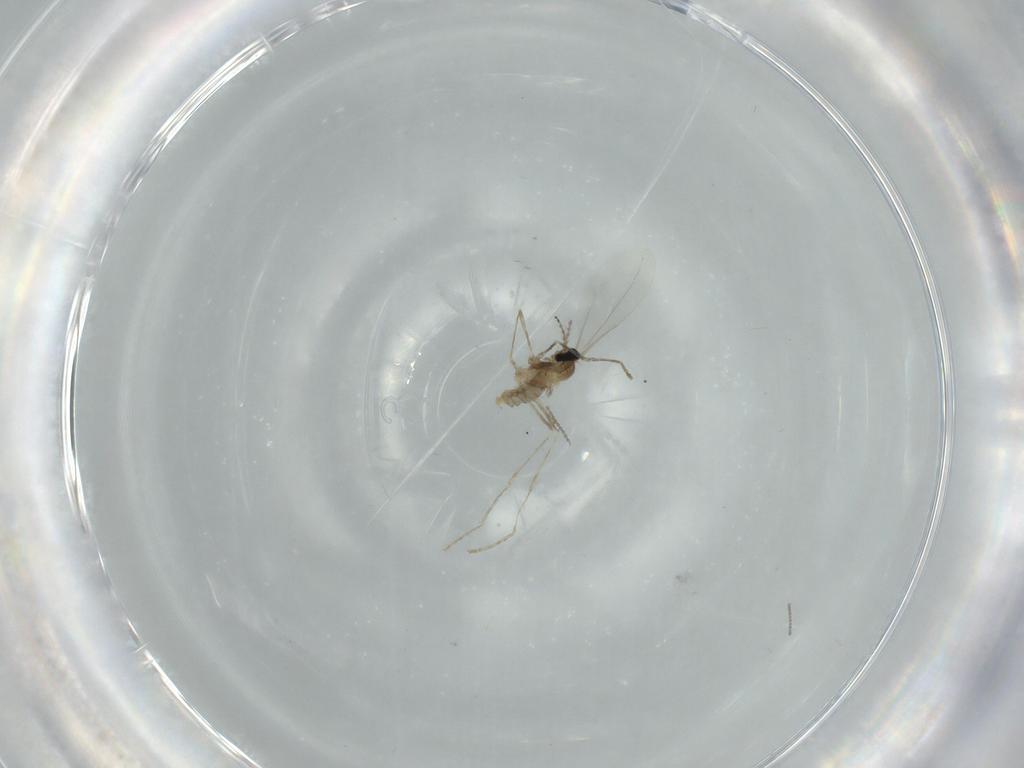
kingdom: Animalia
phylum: Arthropoda
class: Insecta
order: Diptera
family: Cecidomyiidae
